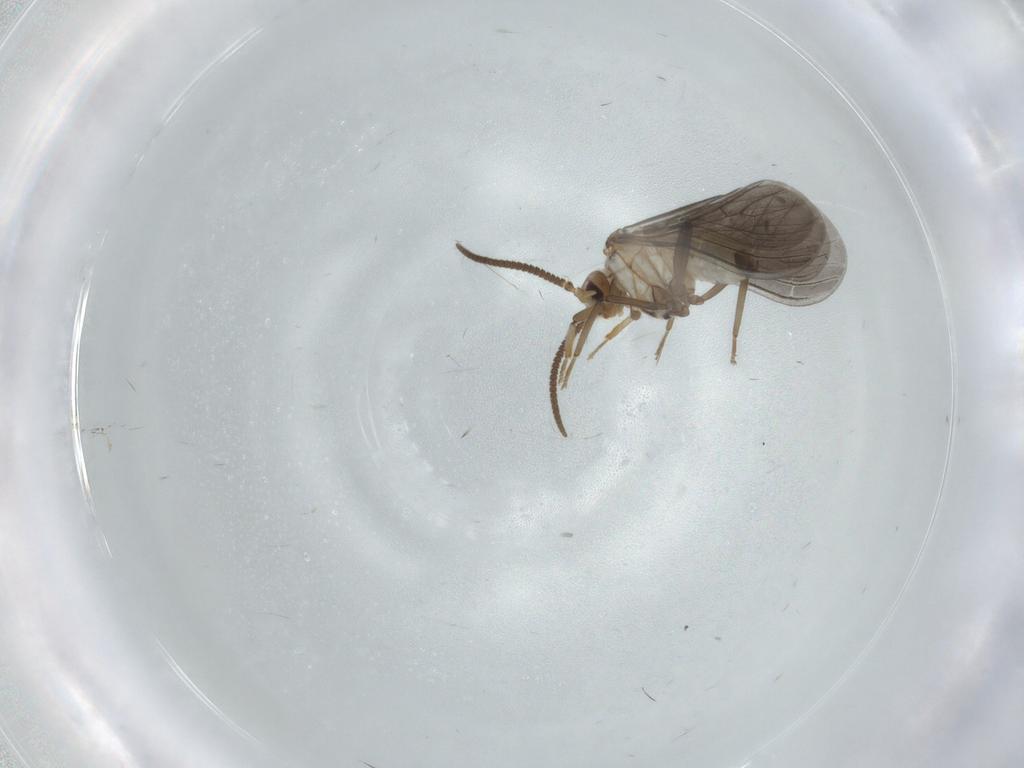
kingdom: Animalia
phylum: Arthropoda
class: Insecta
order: Neuroptera
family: Coniopterygidae
